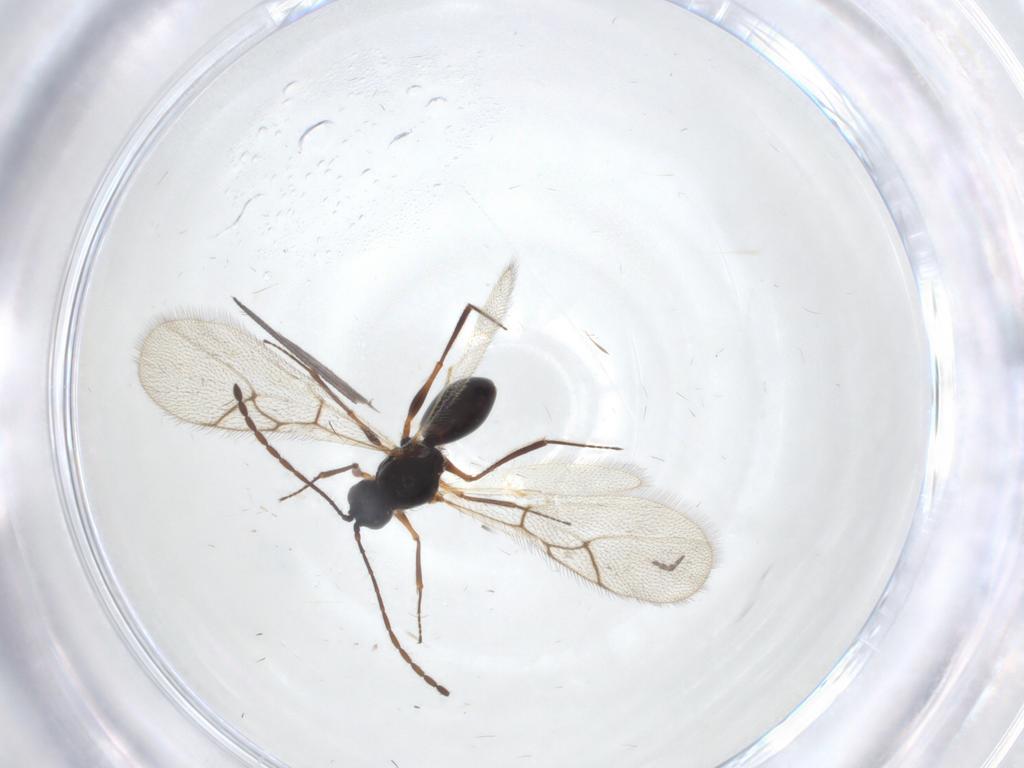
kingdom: Animalia
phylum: Arthropoda
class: Insecta
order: Hymenoptera
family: Figitidae
